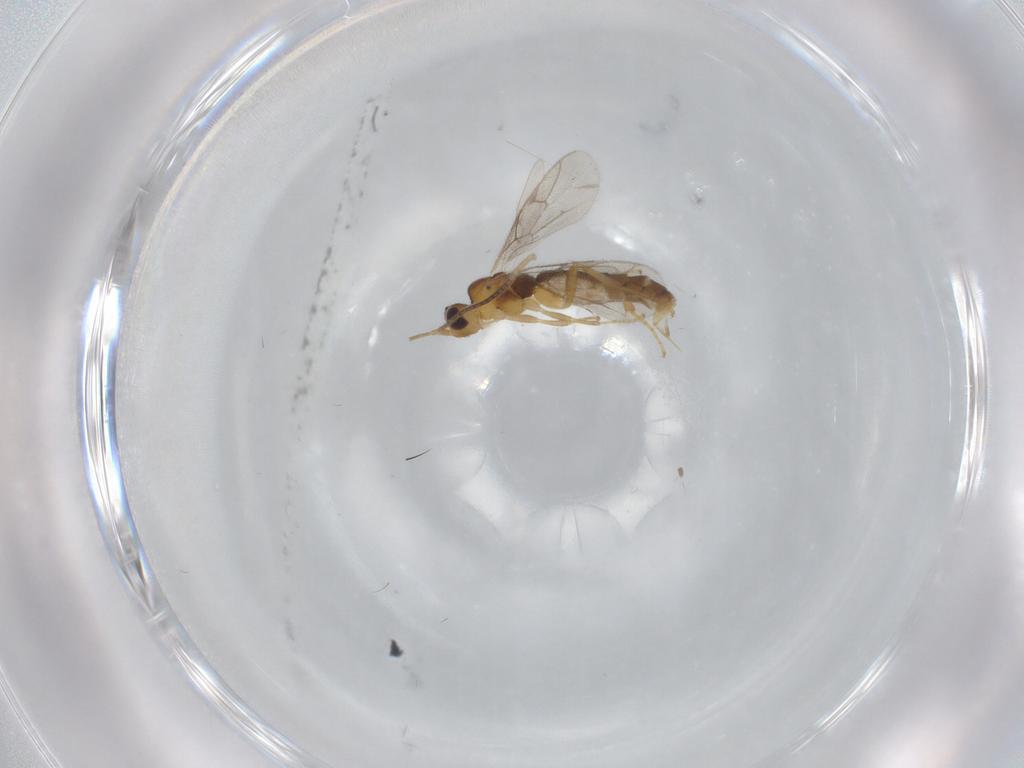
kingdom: Animalia
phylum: Arthropoda
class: Insecta
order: Hymenoptera
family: Ichneumonidae
